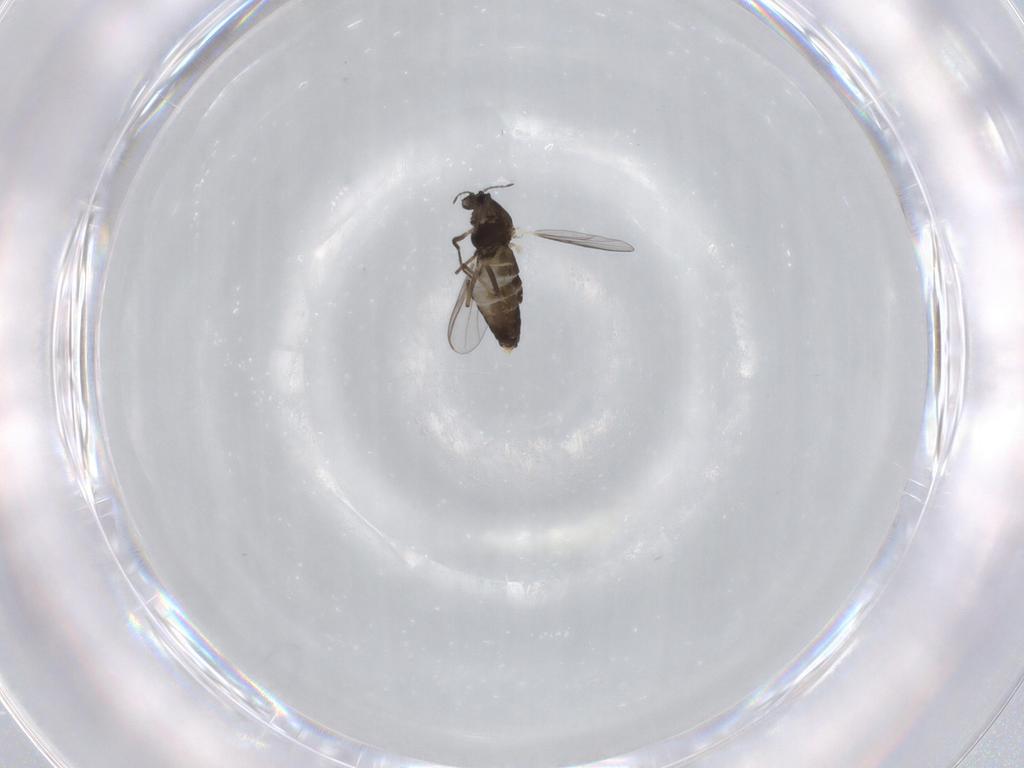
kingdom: Animalia
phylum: Arthropoda
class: Insecta
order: Diptera
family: Chironomidae
